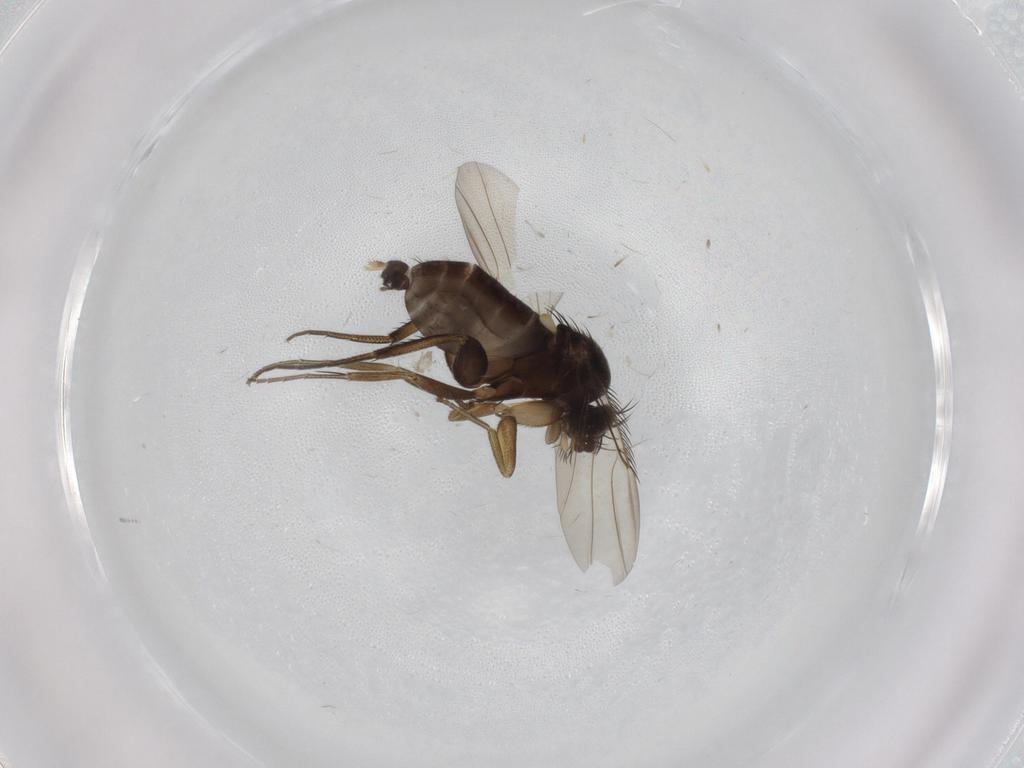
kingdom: Animalia
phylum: Arthropoda
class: Insecta
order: Diptera
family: Phoridae
